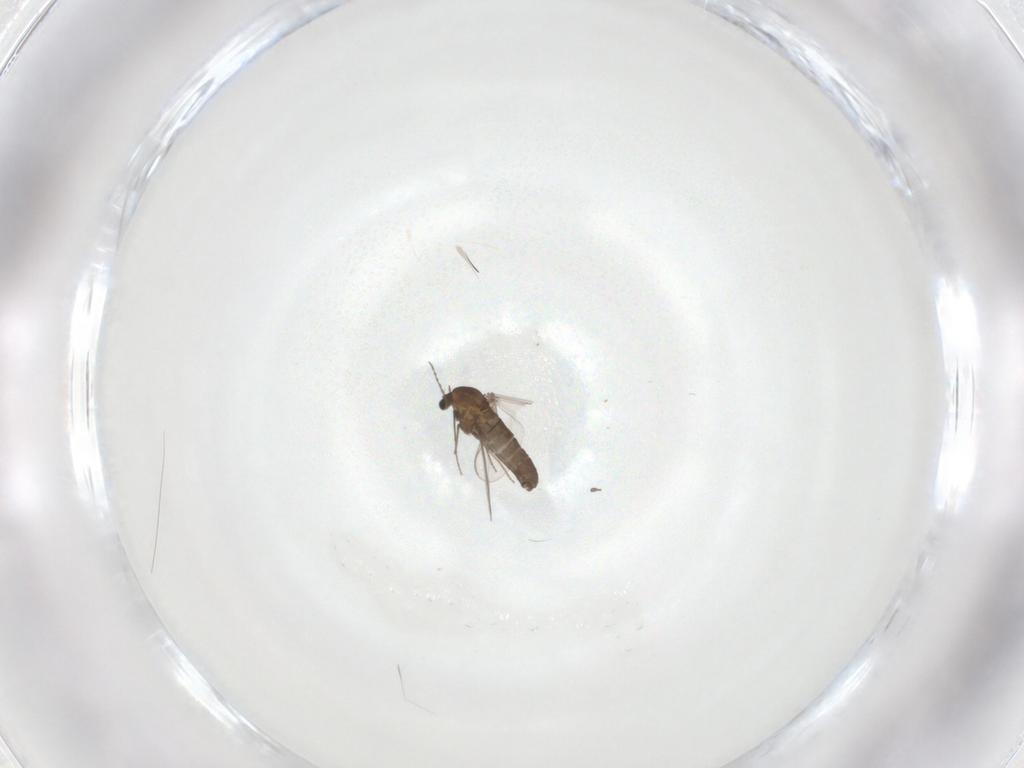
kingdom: Animalia
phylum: Arthropoda
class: Insecta
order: Diptera
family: Chironomidae
